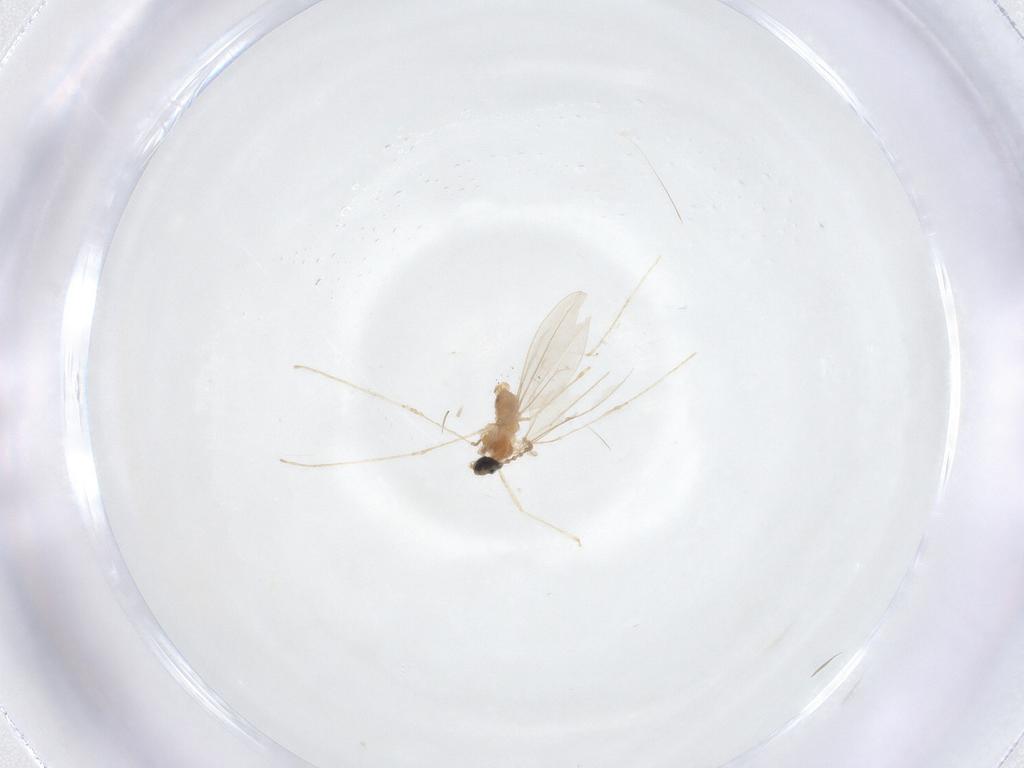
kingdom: Animalia
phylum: Arthropoda
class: Insecta
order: Diptera
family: Cecidomyiidae
